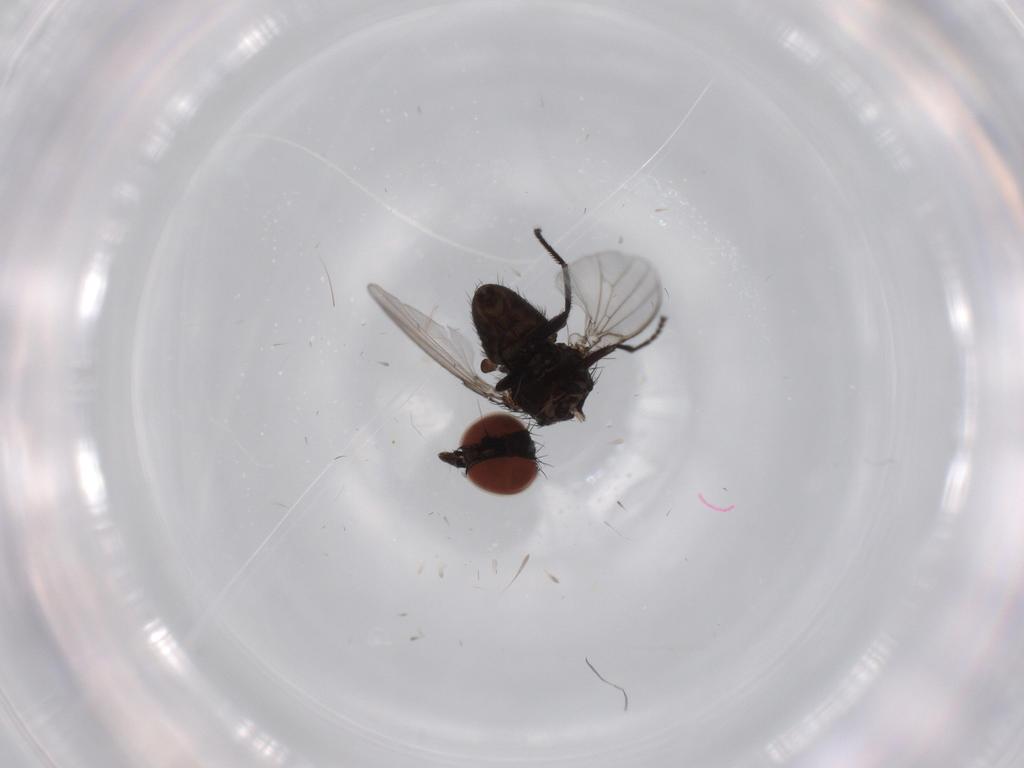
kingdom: Animalia
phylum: Arthropoda
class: Insecta
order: Diptera
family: Milichiidae
